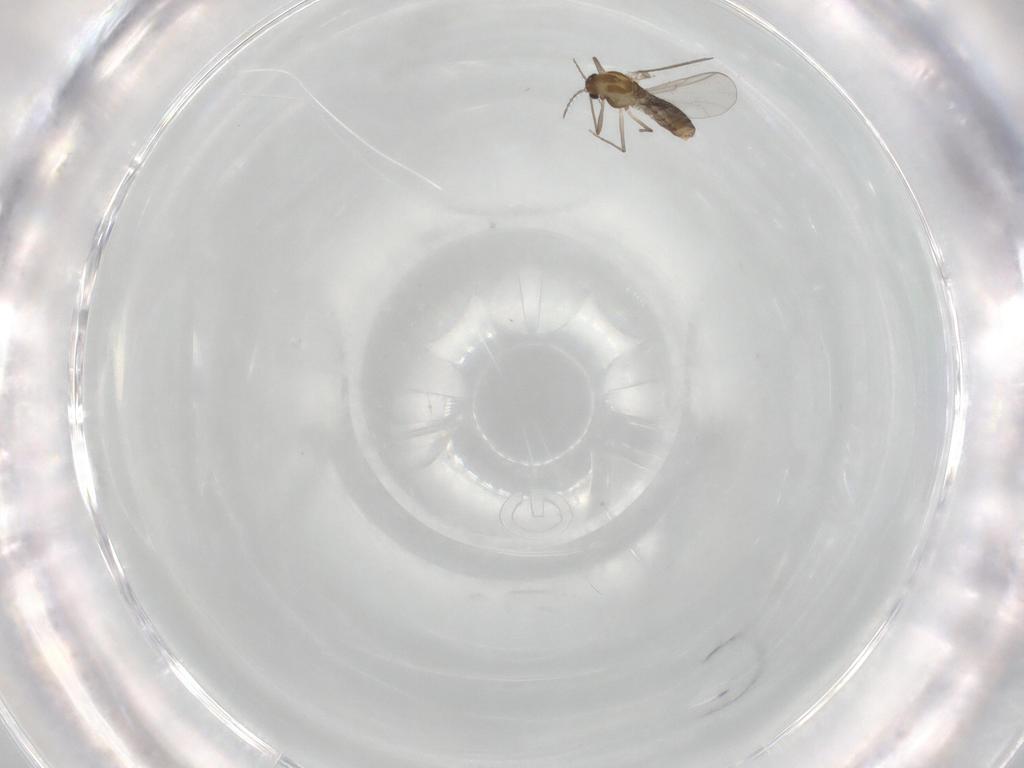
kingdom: Animalia
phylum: Arthropoda
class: Insecta
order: Diptera
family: Cecidomyiidae
